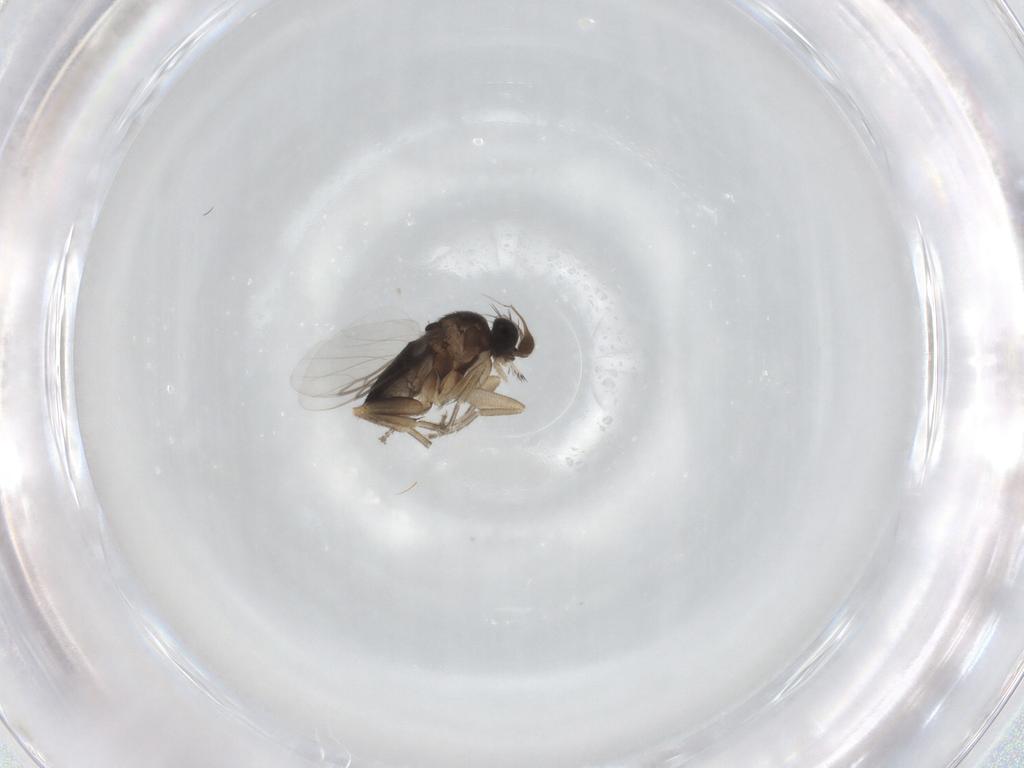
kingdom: Animalia
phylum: Arthropoda
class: Insecta
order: Diptera
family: Phoridae
